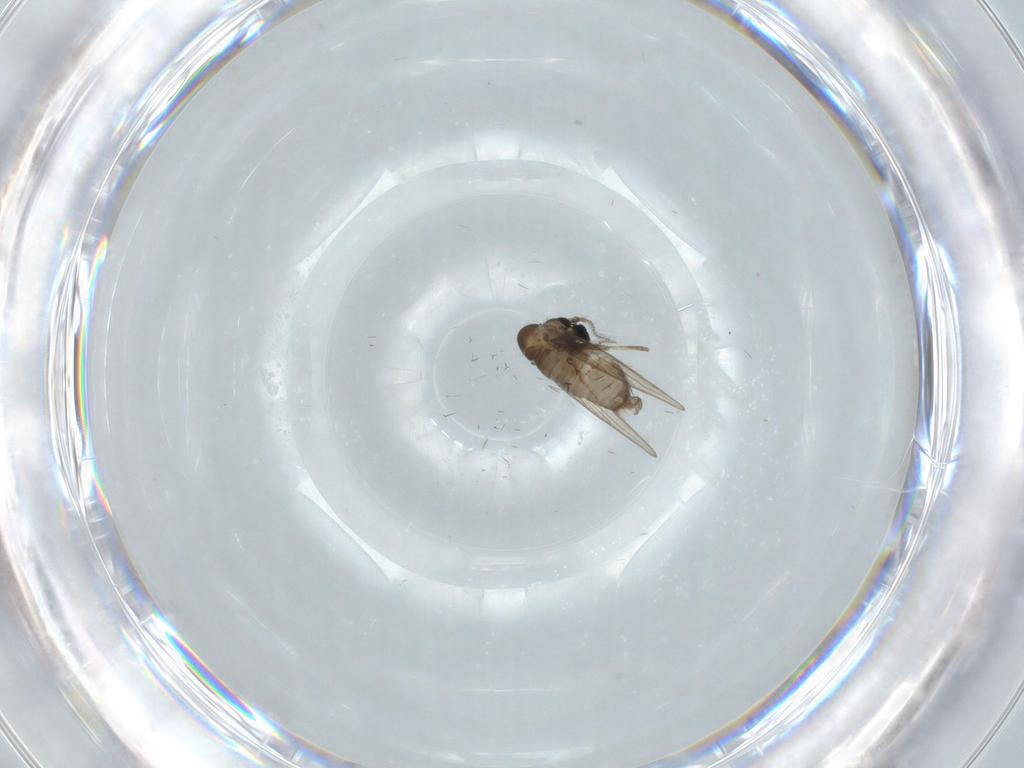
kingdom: Animalia
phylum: Arthropoda
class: Insecta
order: Diptera
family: Psychodidae
